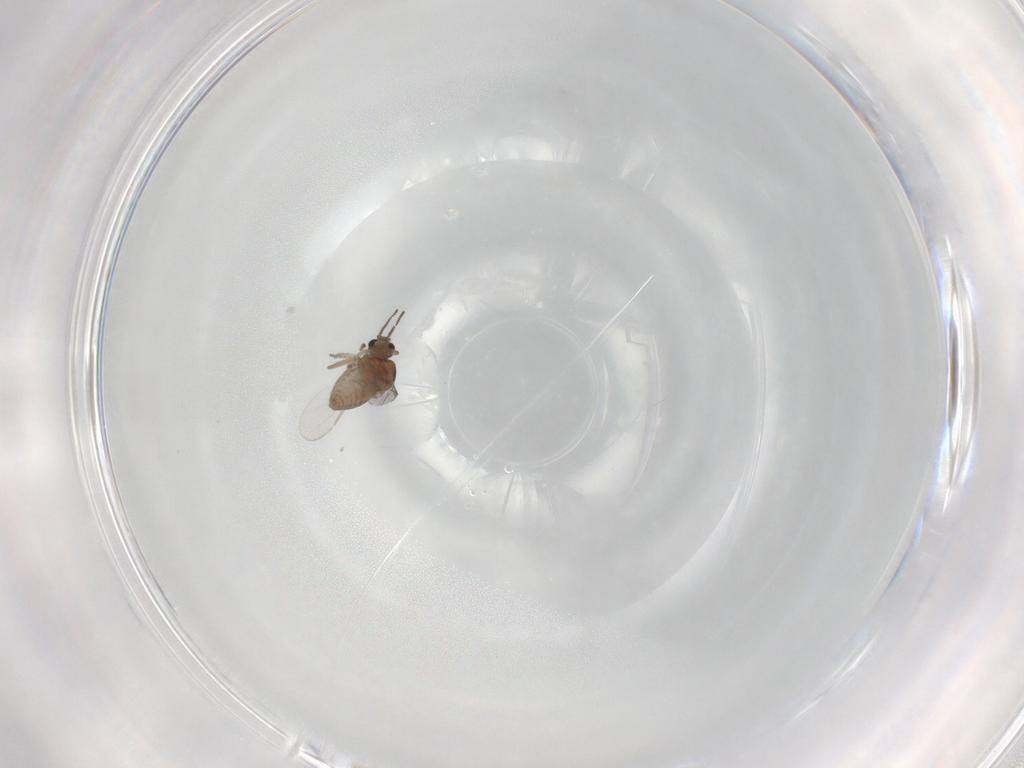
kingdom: Animalia
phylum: Arthropoda
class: Insecta
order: Diptera
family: Ceratopogonidae
